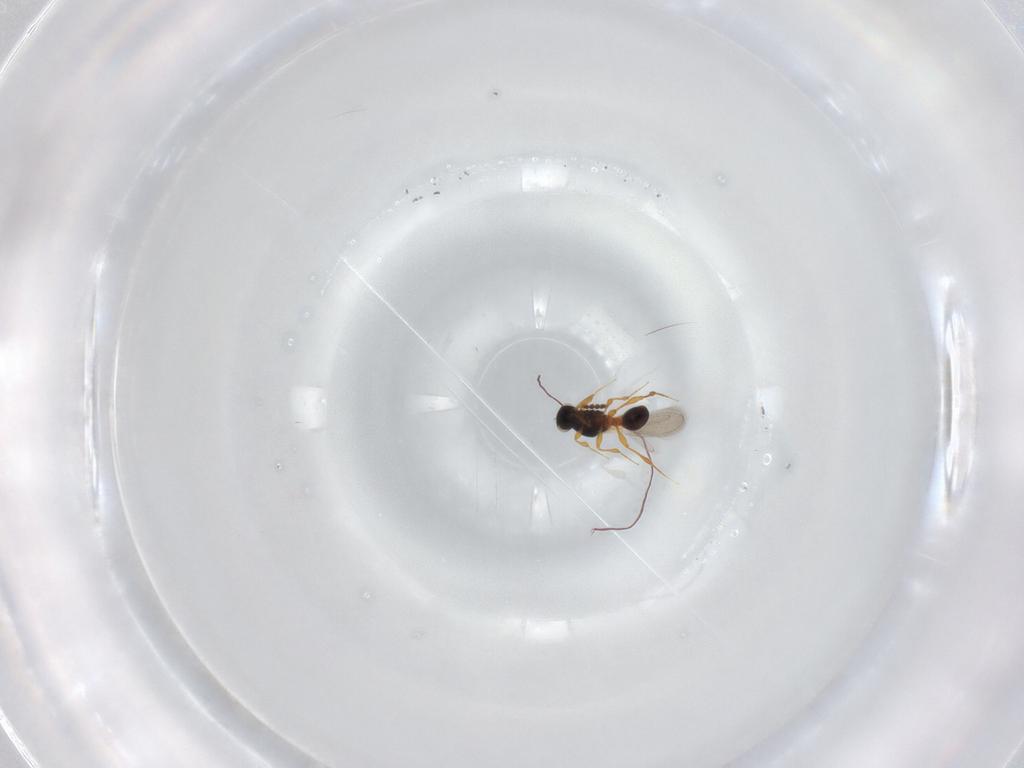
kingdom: Animalia
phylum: Arthropoda
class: Insecta
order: Hymenoptera
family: Platygastridae
